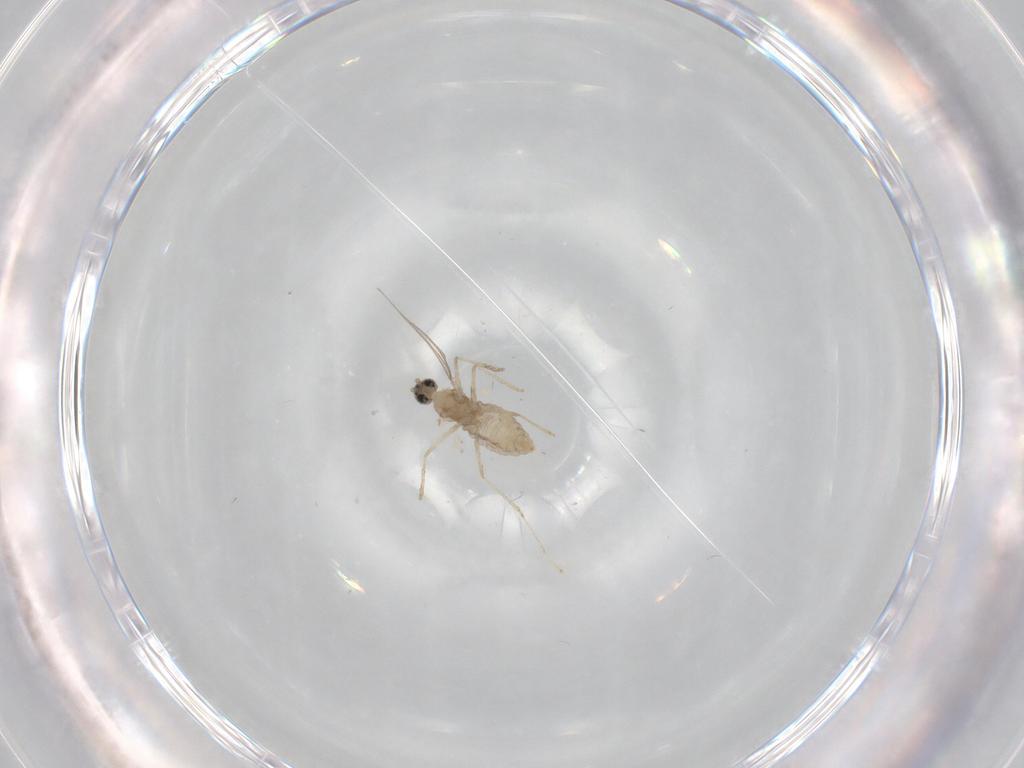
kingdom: Animalia
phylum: Arthropoda
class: Insecta
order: Diptera
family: Cecidomyiidae
